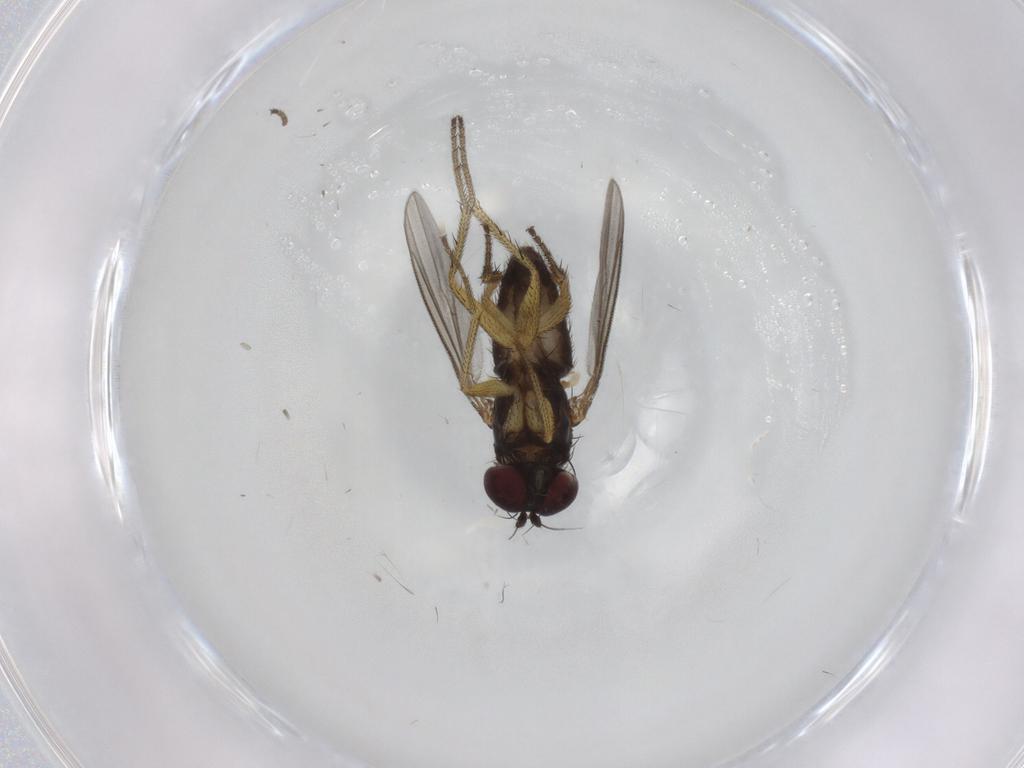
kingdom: Animalia
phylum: Arthropoda
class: Insecta
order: Diptera
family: Dolichopodidae
